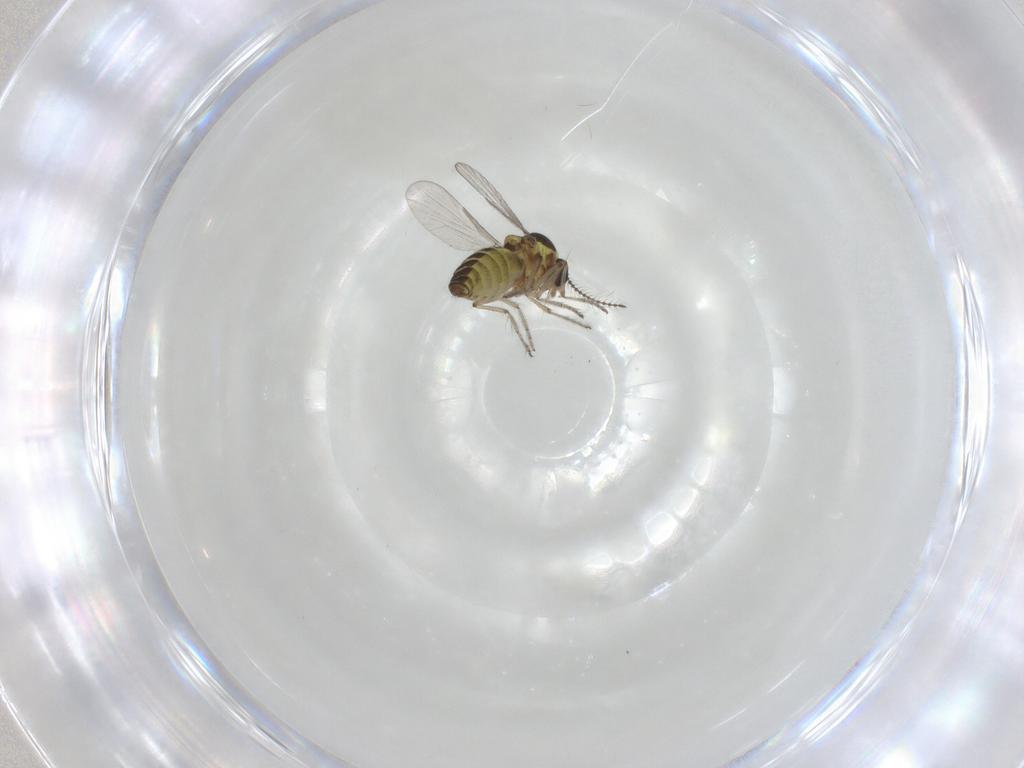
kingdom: Animalia
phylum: Arthropoda
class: Insecta
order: Diptera
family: Ceratopogonidae
